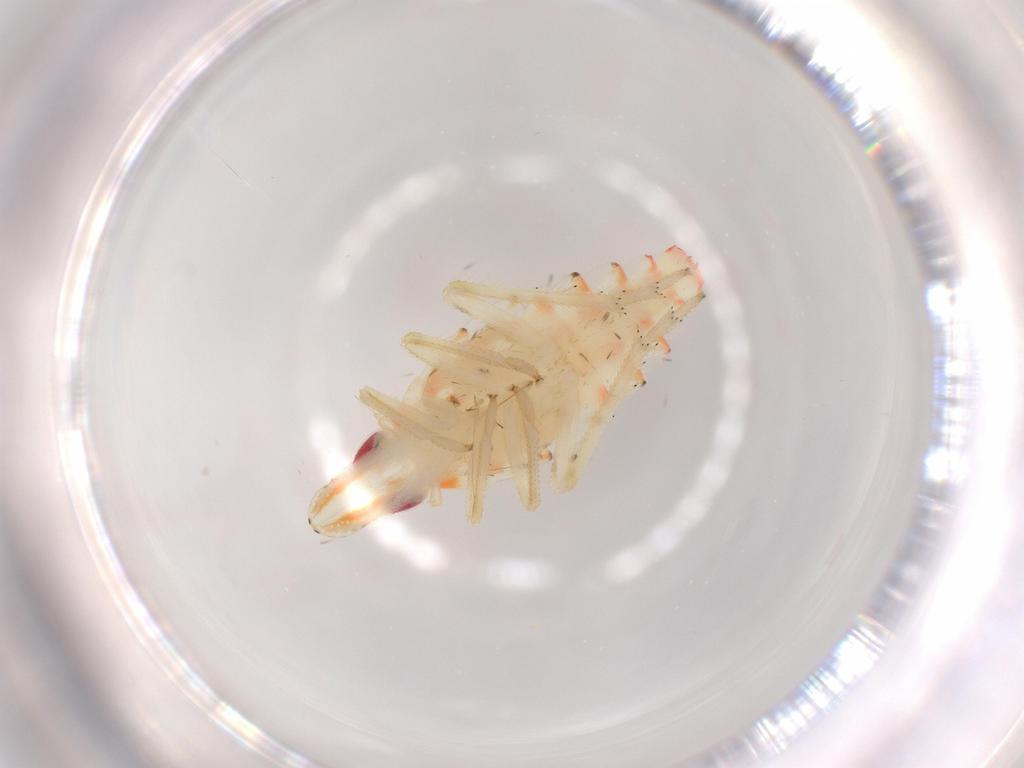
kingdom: Animalia
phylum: Arthropoda
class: Insecta
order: Hemiptera
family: Tropiduchidae
